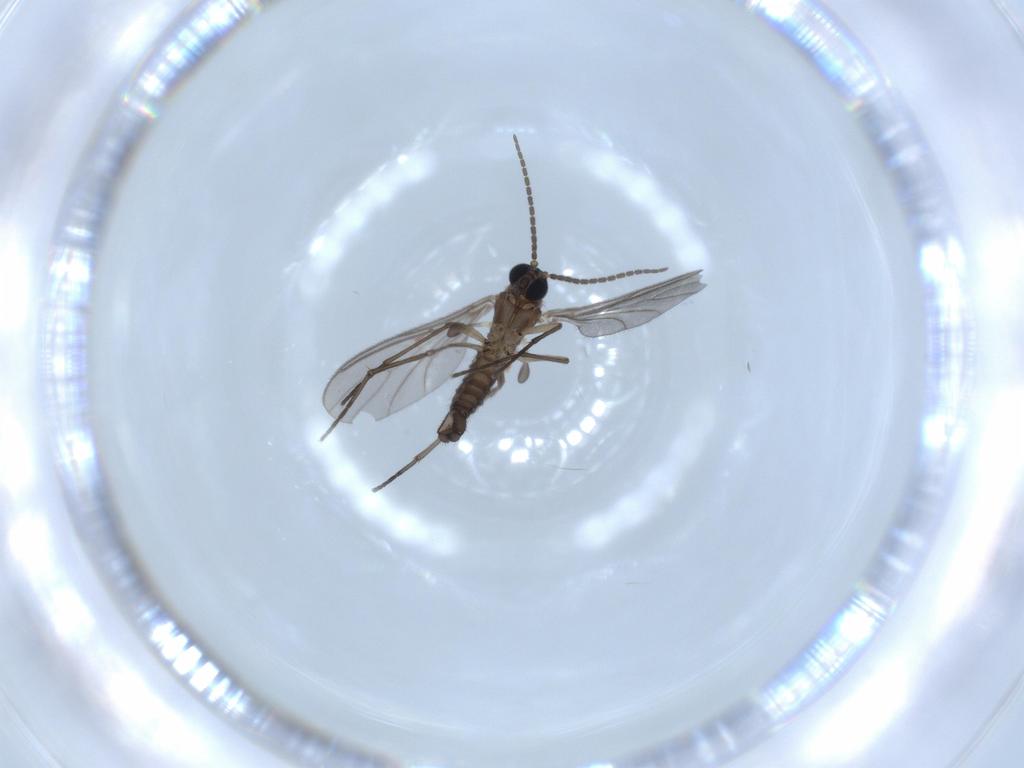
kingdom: Animalia
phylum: Arthropoda
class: Insecta
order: Diptera
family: Sciaridae
